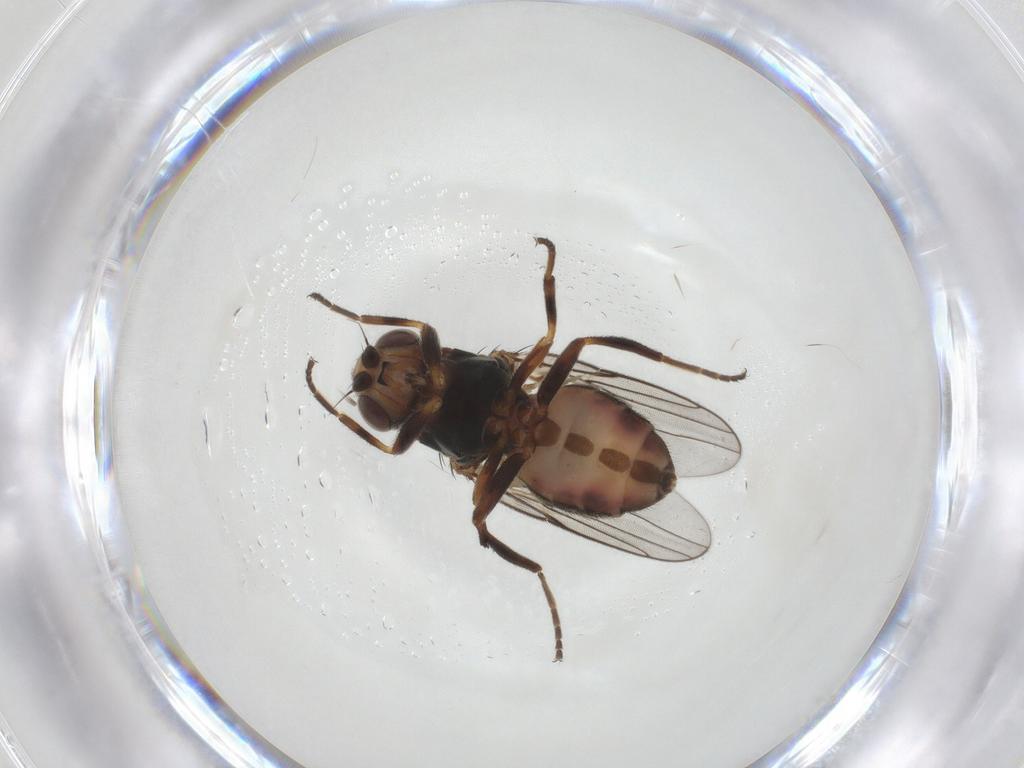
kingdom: Animalia
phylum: Arthropoda
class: Insecta
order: Diptera
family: Chloropidae
